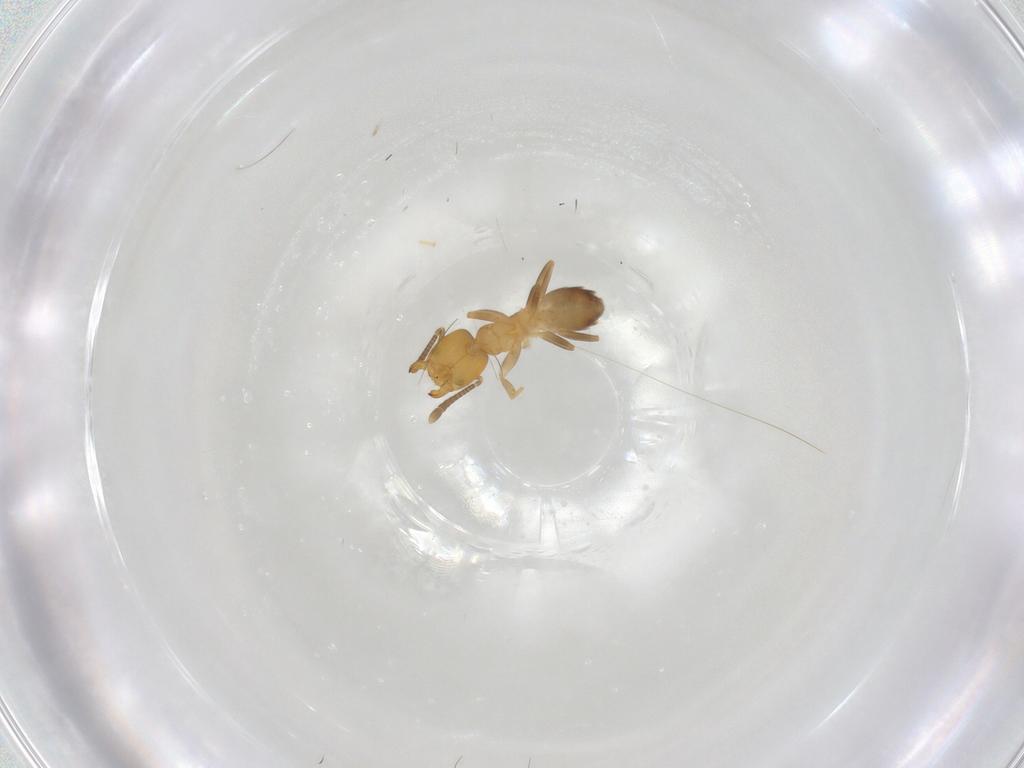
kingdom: Animalia
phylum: Arthropoda
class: Insecta
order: Hymenoptera
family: Formicidae
